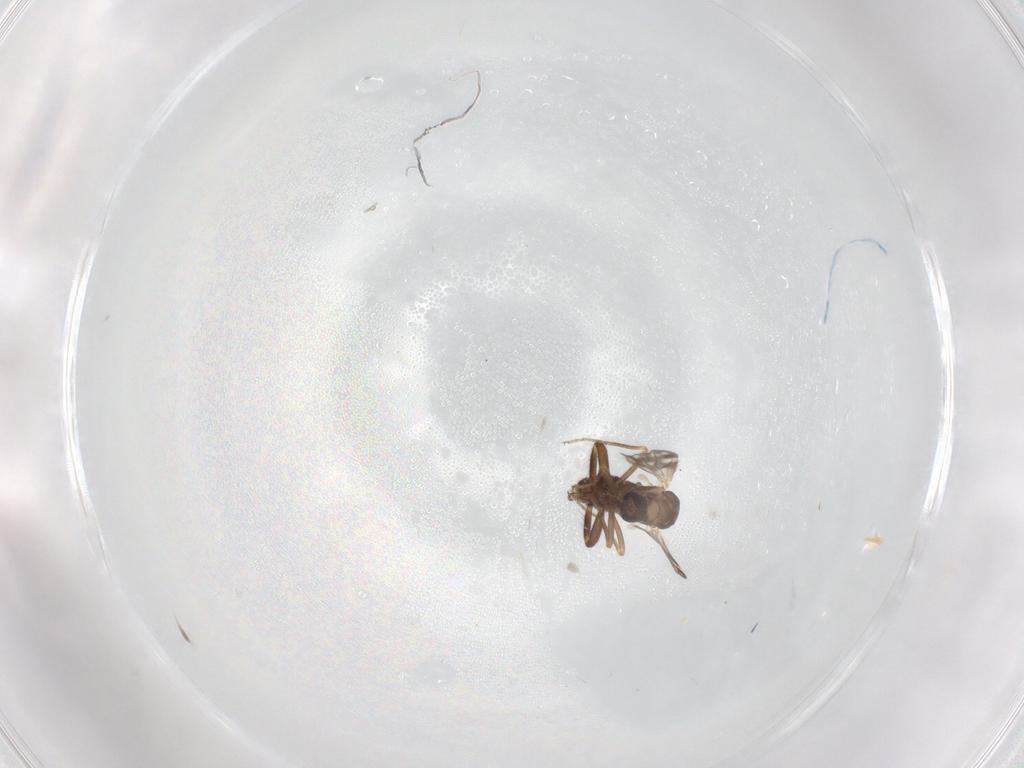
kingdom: Animalia
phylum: Arthropoda
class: Insecta
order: Diptera
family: Ceratopogonidae
